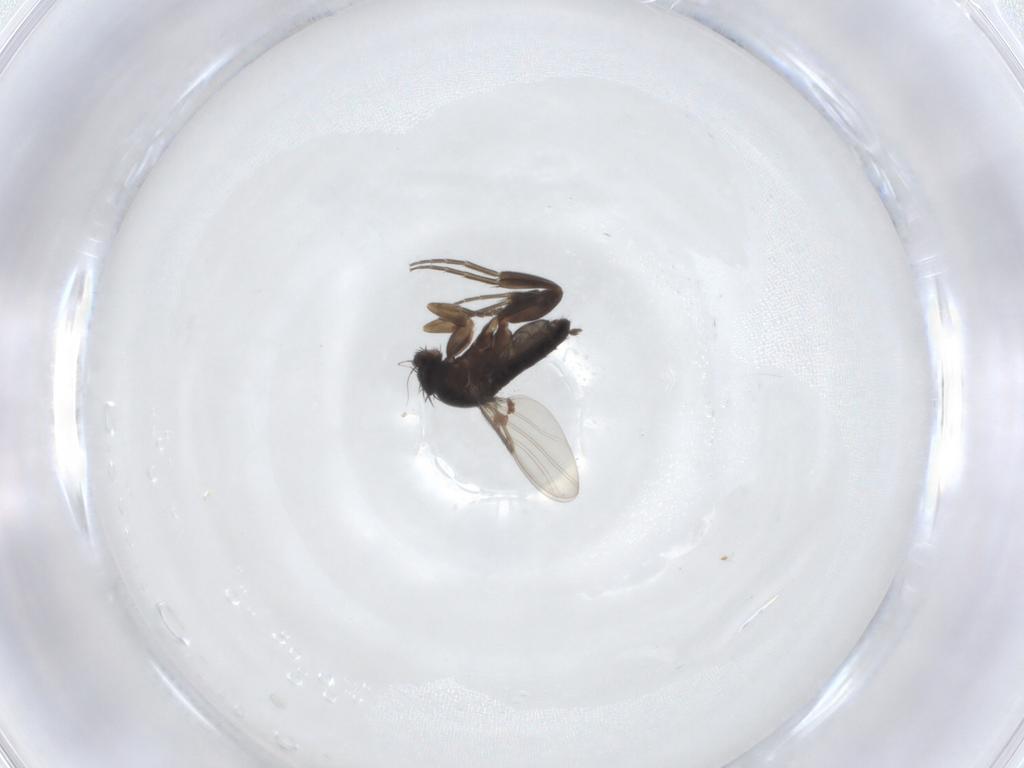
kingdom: Animalia
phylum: Arthropoda
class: Insecta
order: Diptera
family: Phoridae
